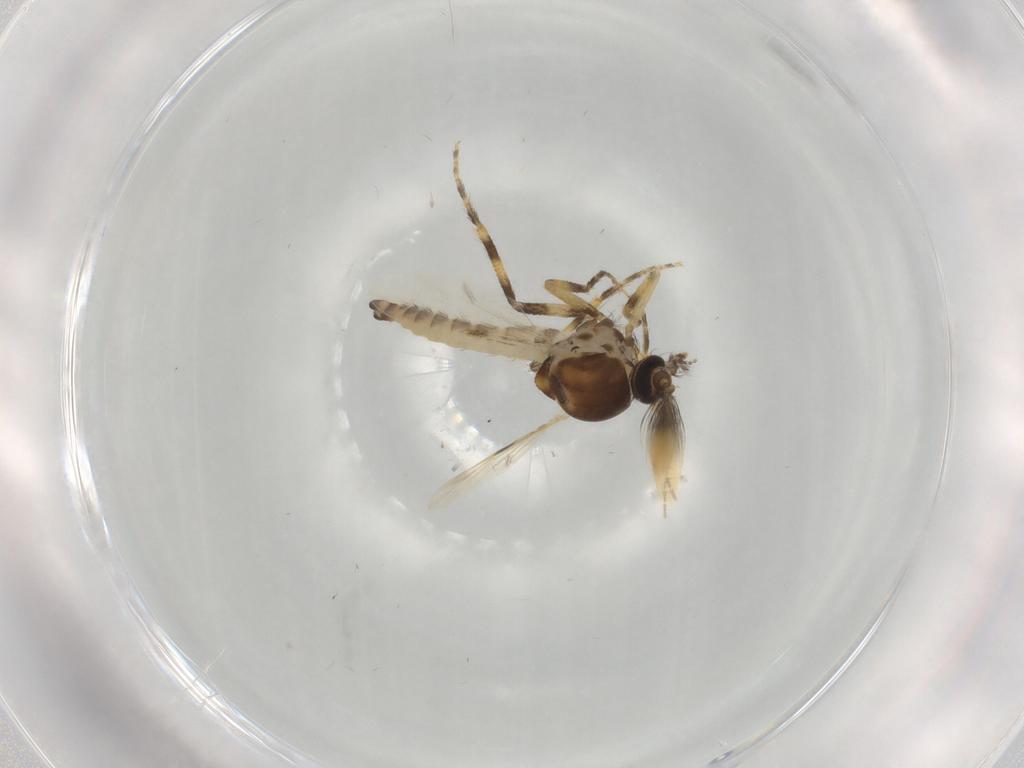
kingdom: Animalia
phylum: Arthropoda
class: Insecta
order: Diptera
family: Ceratopogonidae
